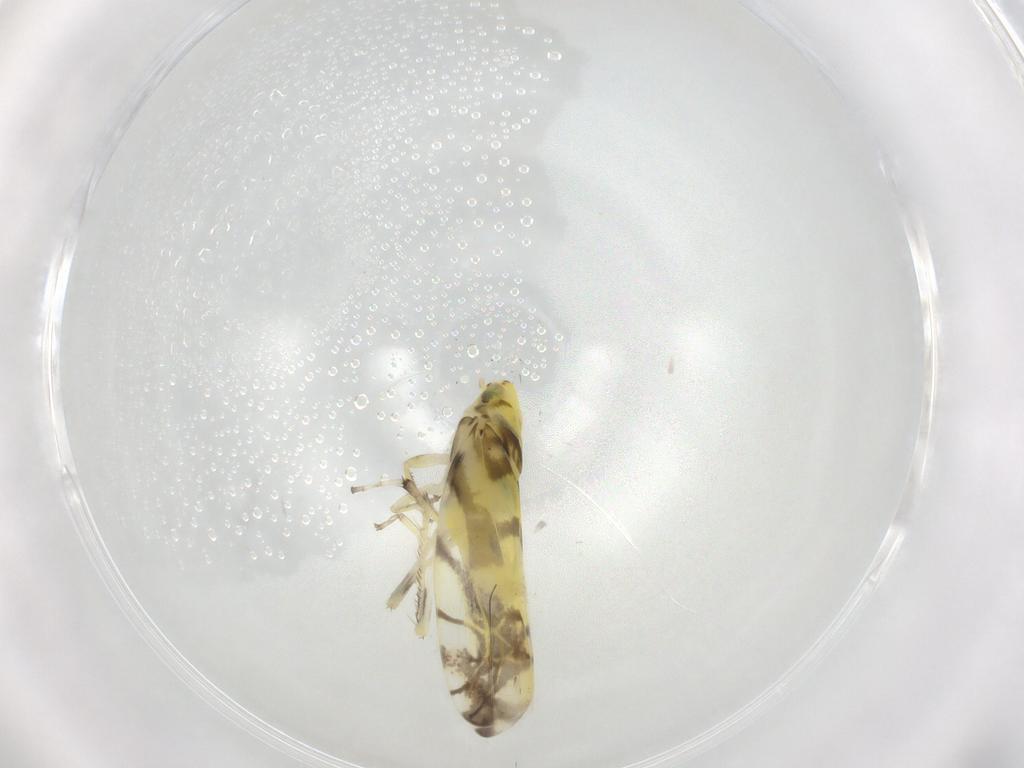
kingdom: Animalia
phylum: Arthropoda
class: Insecta
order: Hemiptera
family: Cicadellidae
